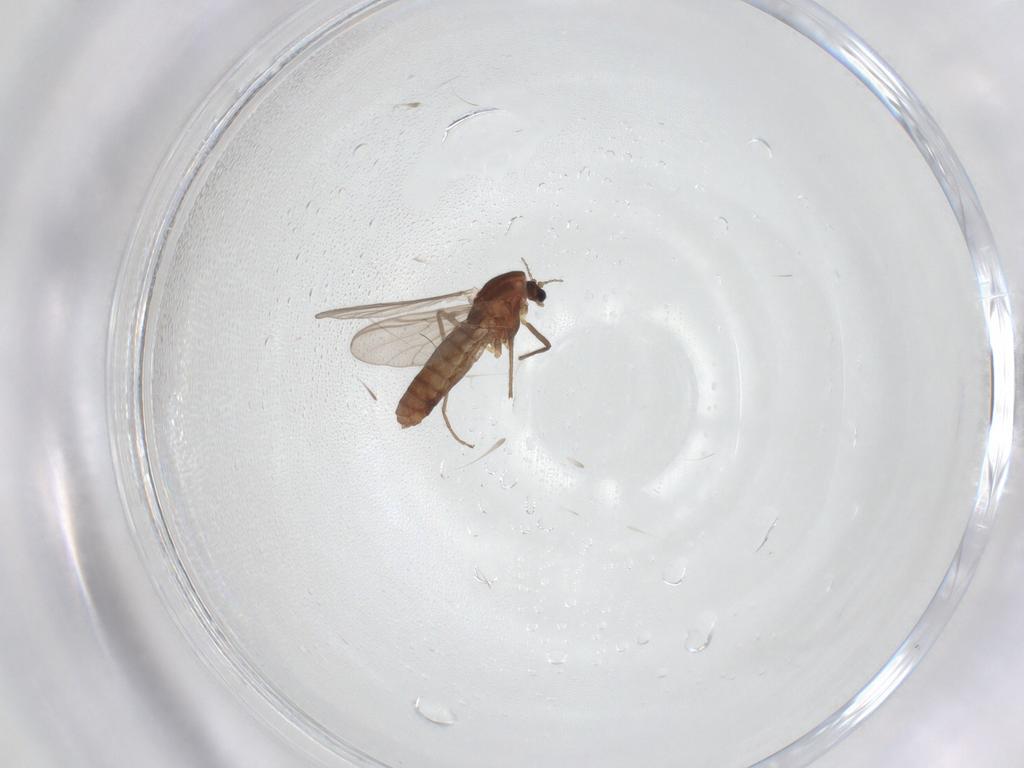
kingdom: Animalia
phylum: Arthropoda
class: Insecta
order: Diptera
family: Chironomidae
